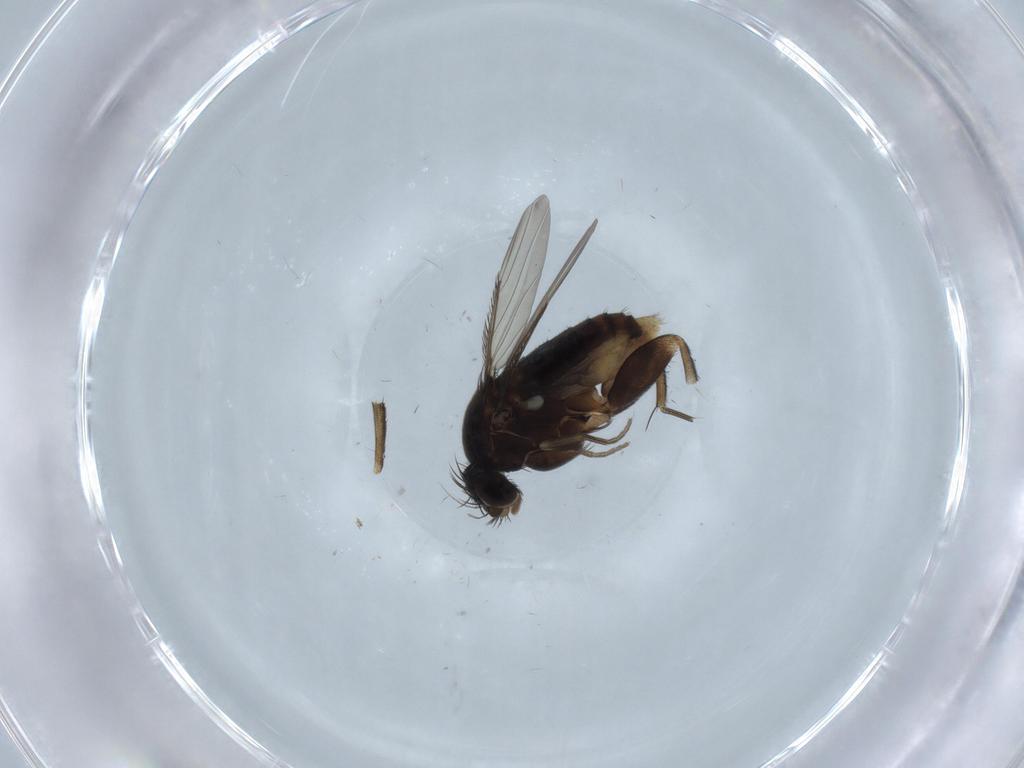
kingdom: Animalia
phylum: Arthropoda
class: Insecta
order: Diptera
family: Phoridae
